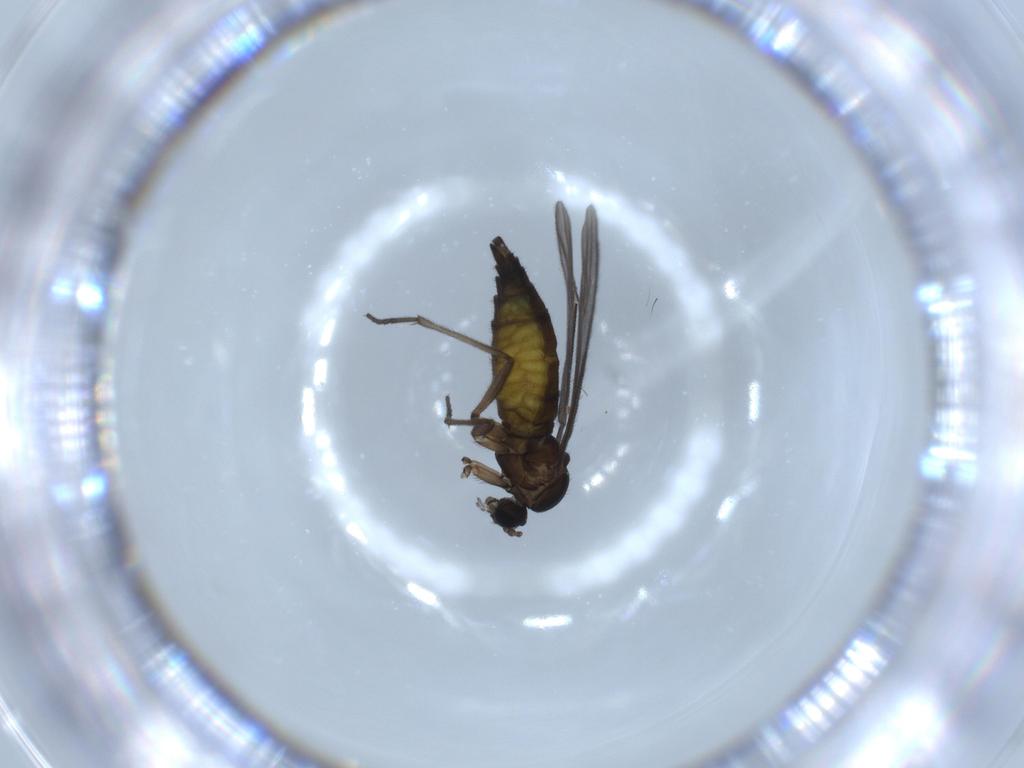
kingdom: Animalia
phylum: Arthropoda
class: Insecta
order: Diptera
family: Sciaridae
